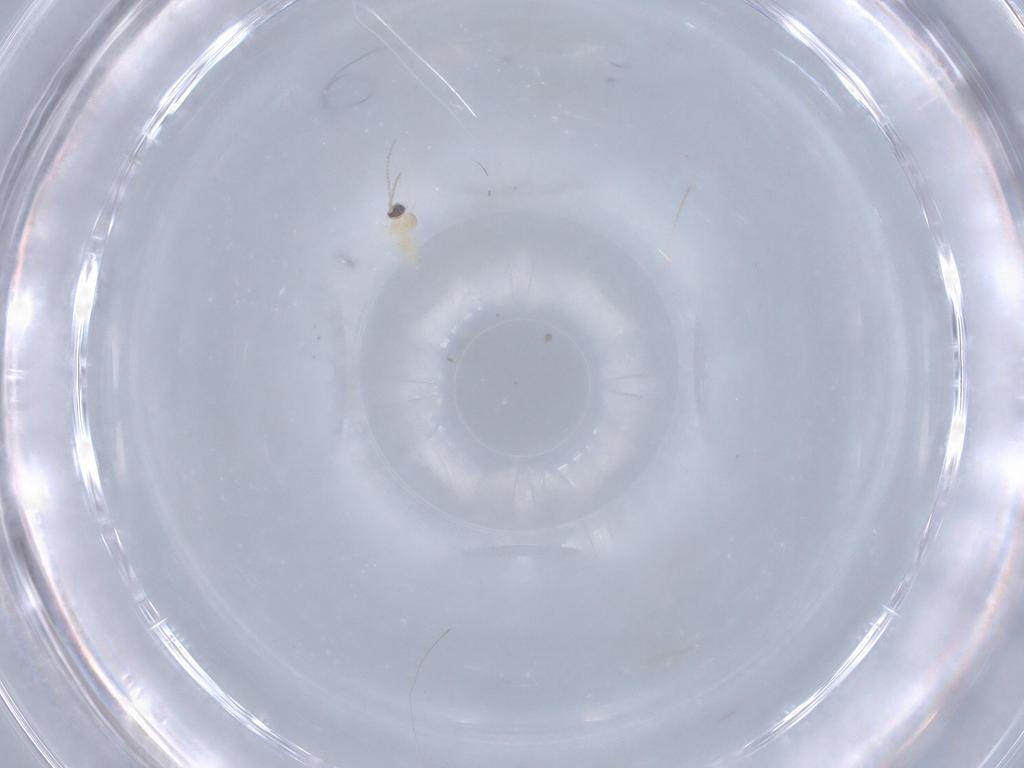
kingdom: Animalia
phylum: Arthropoda
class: Insecta
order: Diptera
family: Cecidomyiidae
